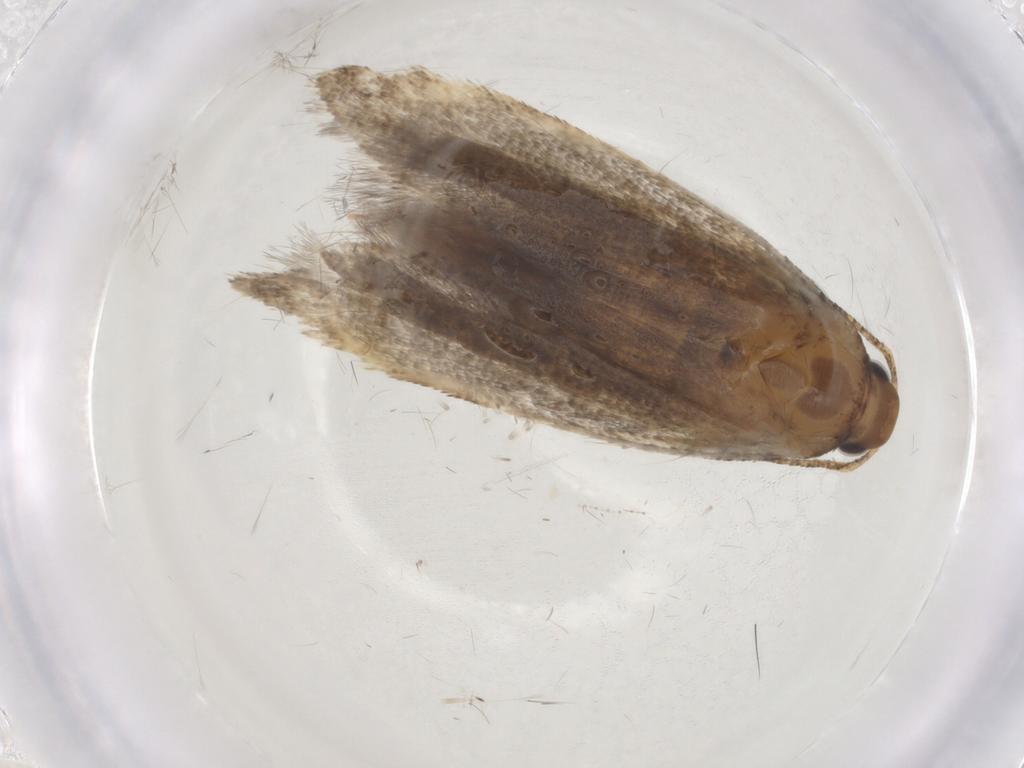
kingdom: Animalia
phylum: Arthropoda
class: Insecta
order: Lepidoptera
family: Gelechiidae
